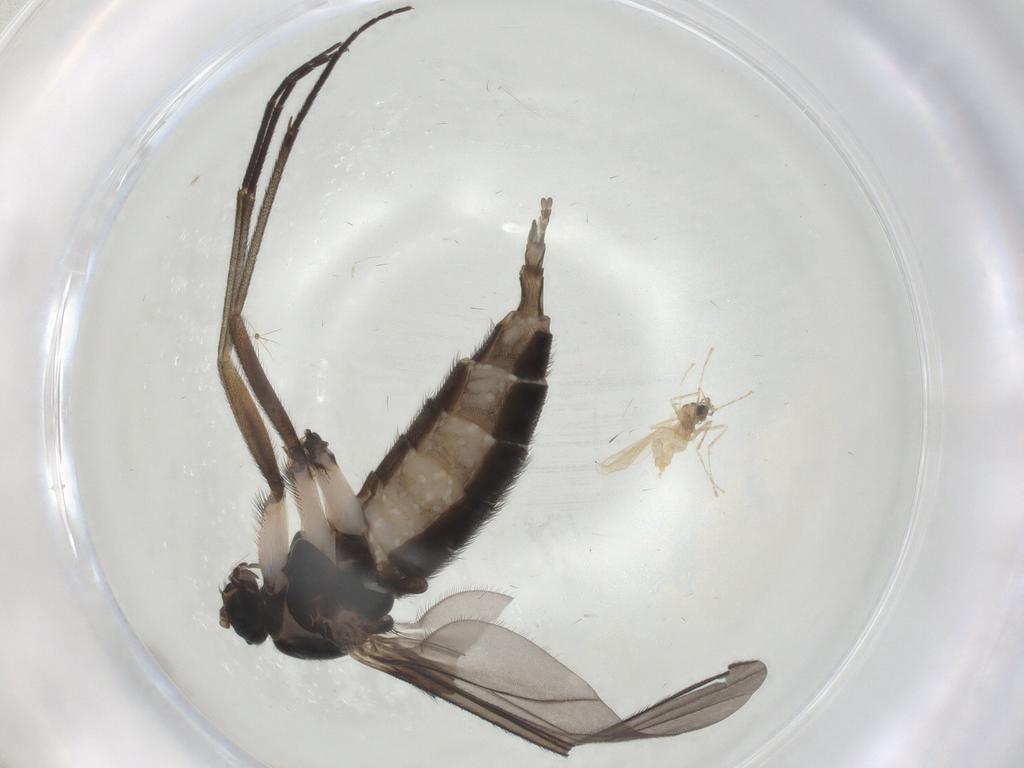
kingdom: Animalia
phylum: Arthropoda
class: Insecta
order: Diptera
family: Sciaridae
